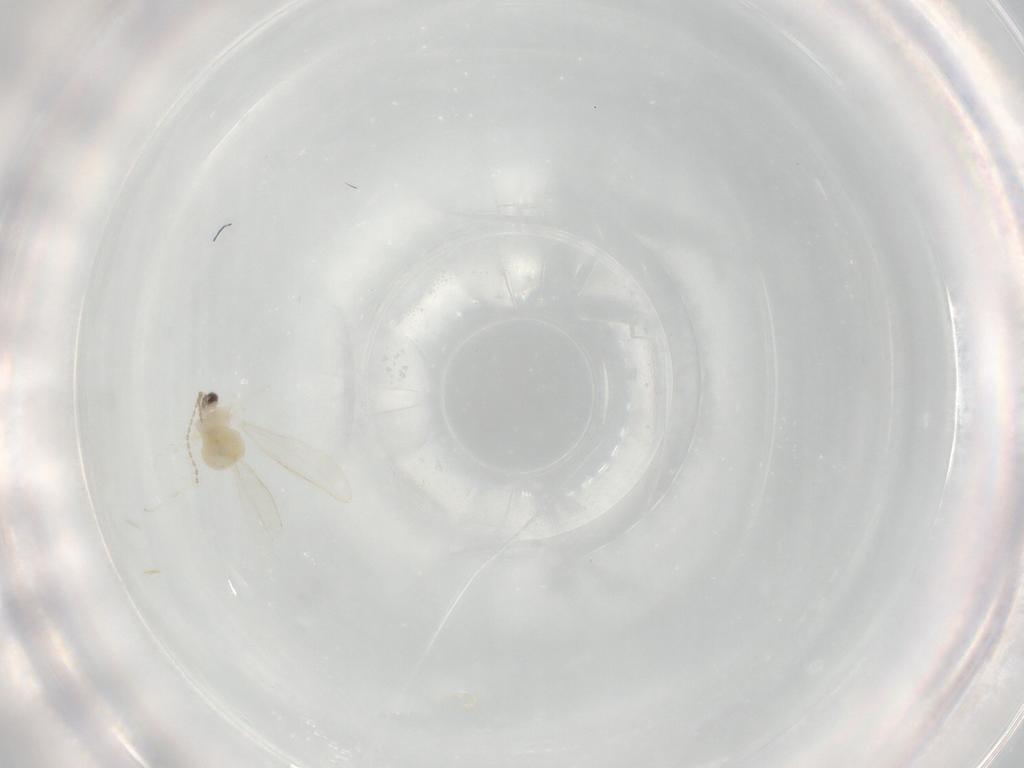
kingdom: Animalia
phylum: Arthropoda
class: Insecta
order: Diptera
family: Cecidomyiidae
